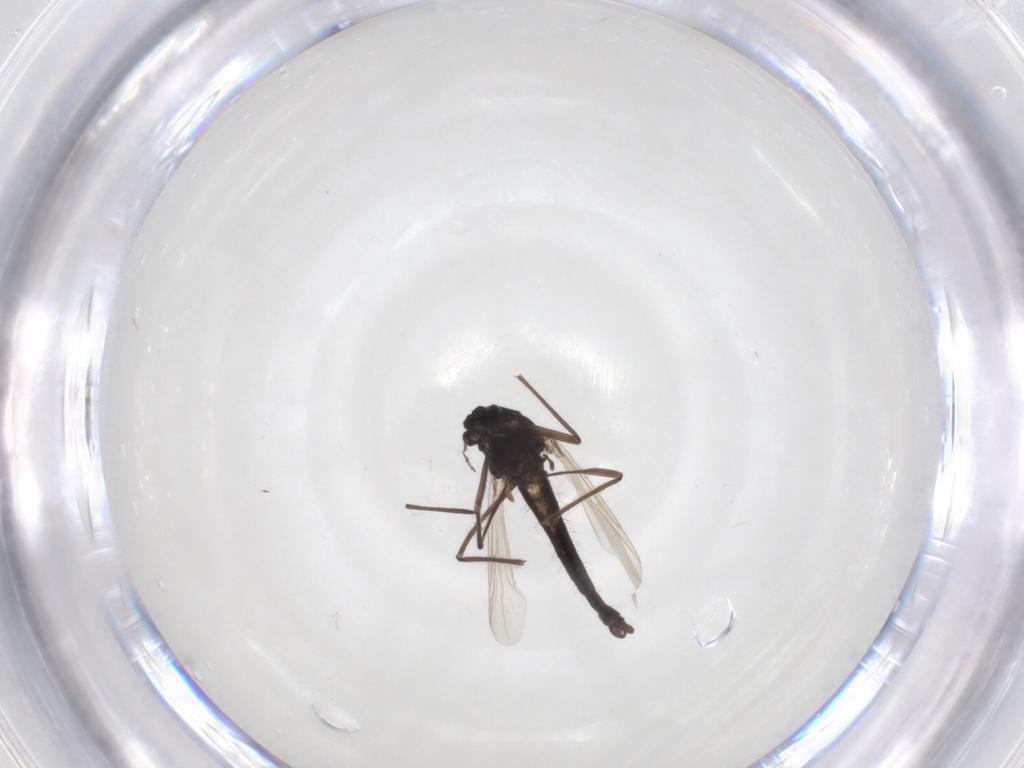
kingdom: Animalia
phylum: Arthropoda
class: Insecta
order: Diptera
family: Chironomidae
